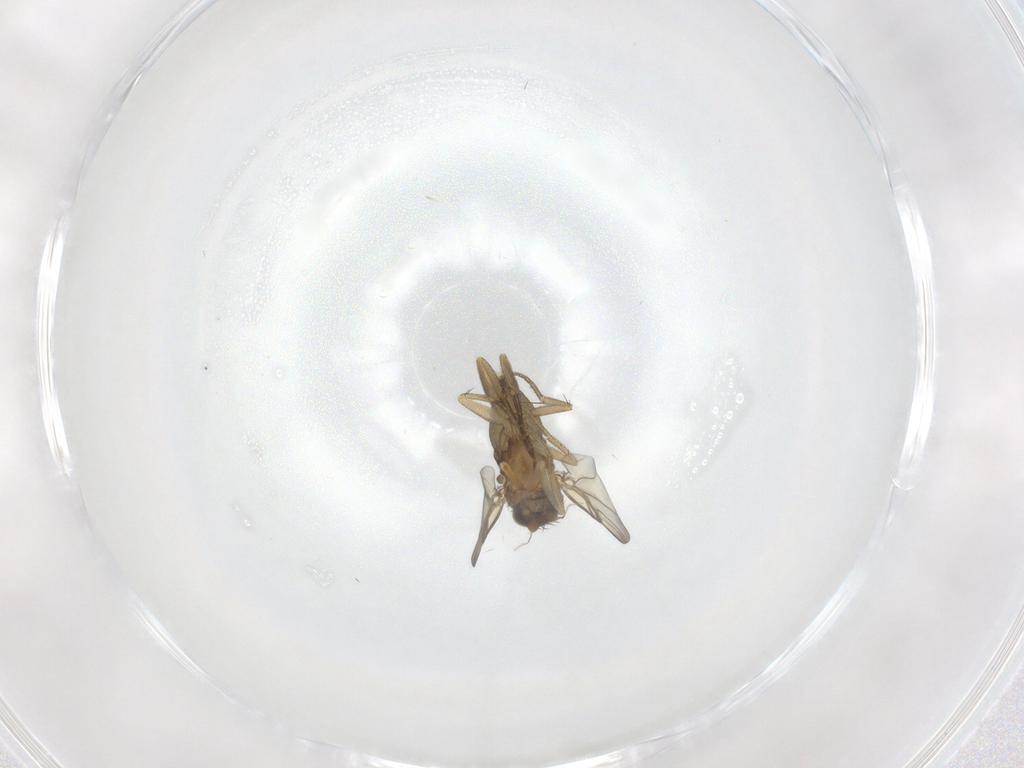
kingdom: Animalia
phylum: Arthropoda
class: Insecta
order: Diptera
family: Phoridae
